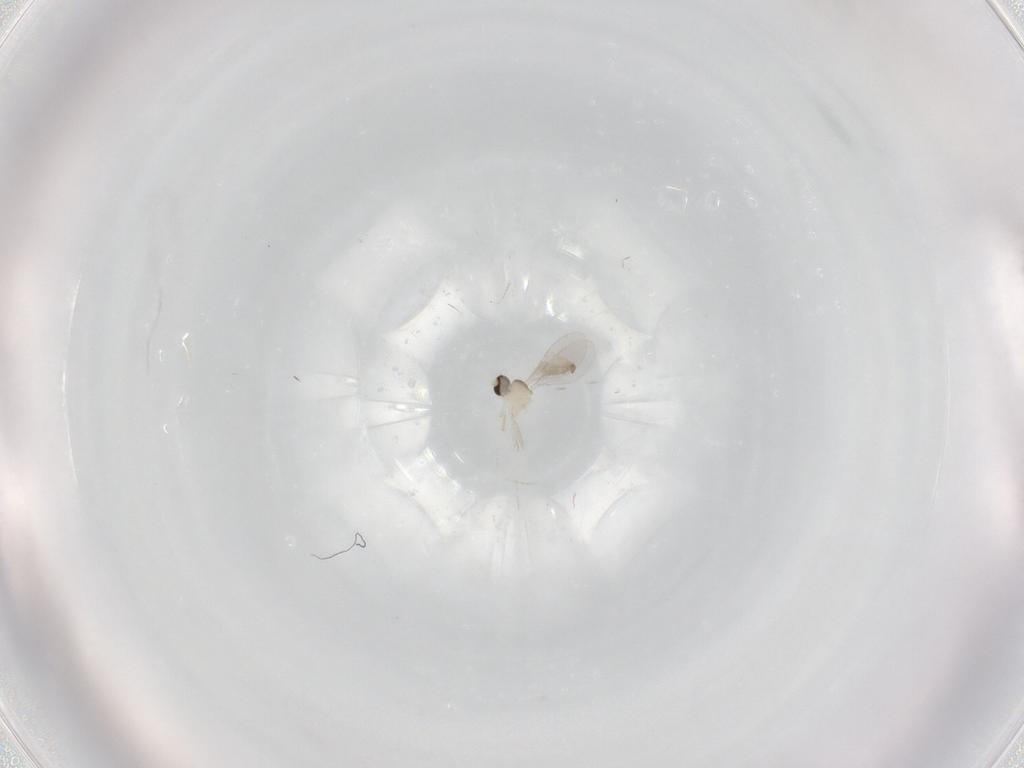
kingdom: Animalia
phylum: Arthropoda
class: Insecta
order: Diptera
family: Cecidomyiidae
